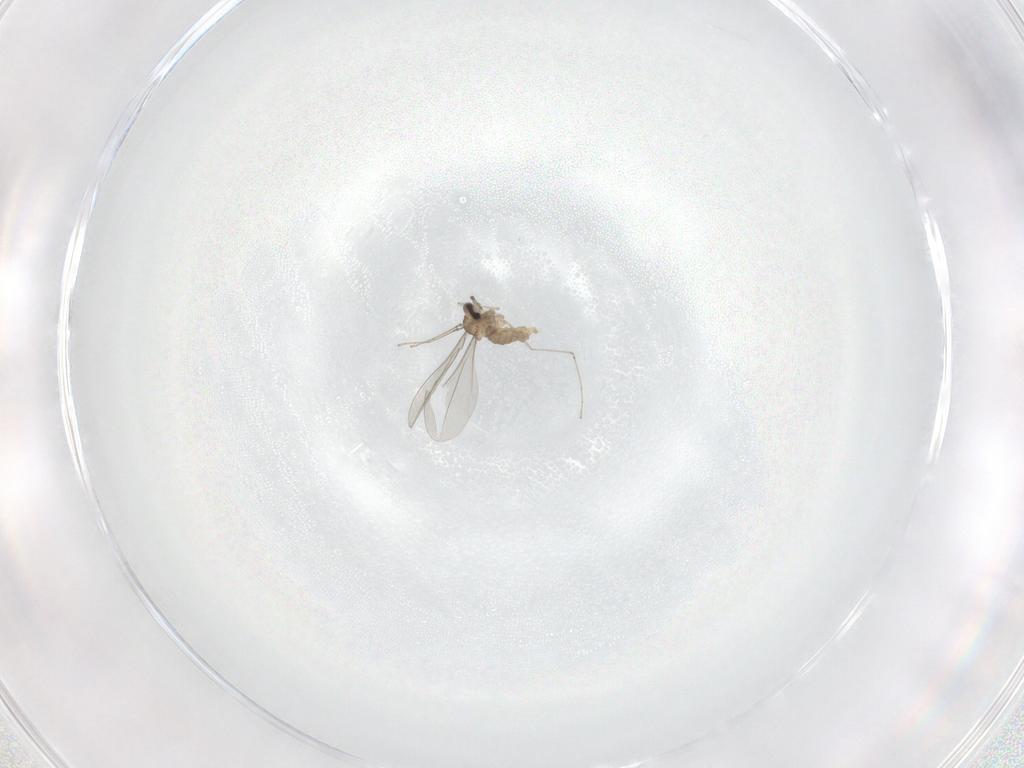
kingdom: Animalia
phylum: Arthropoda
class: Insecta
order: Diptera
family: Cecidomyiidae
